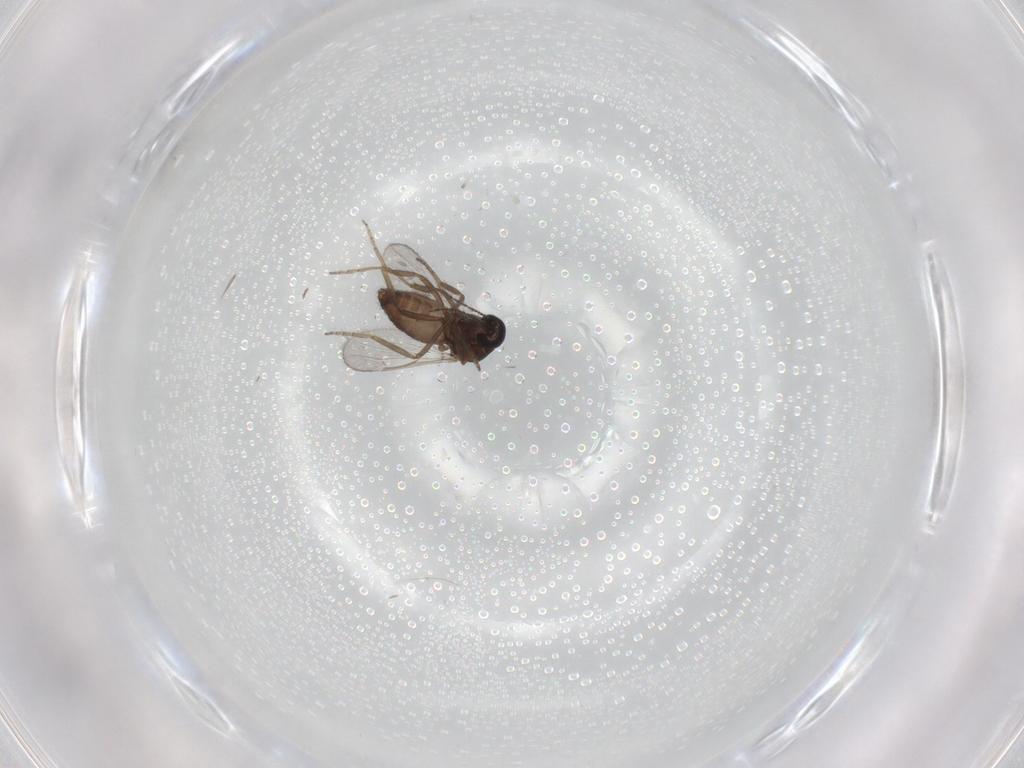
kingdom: Animalia
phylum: Arthropoda
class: Insecta
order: Diptera
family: Ceratopogonidae
